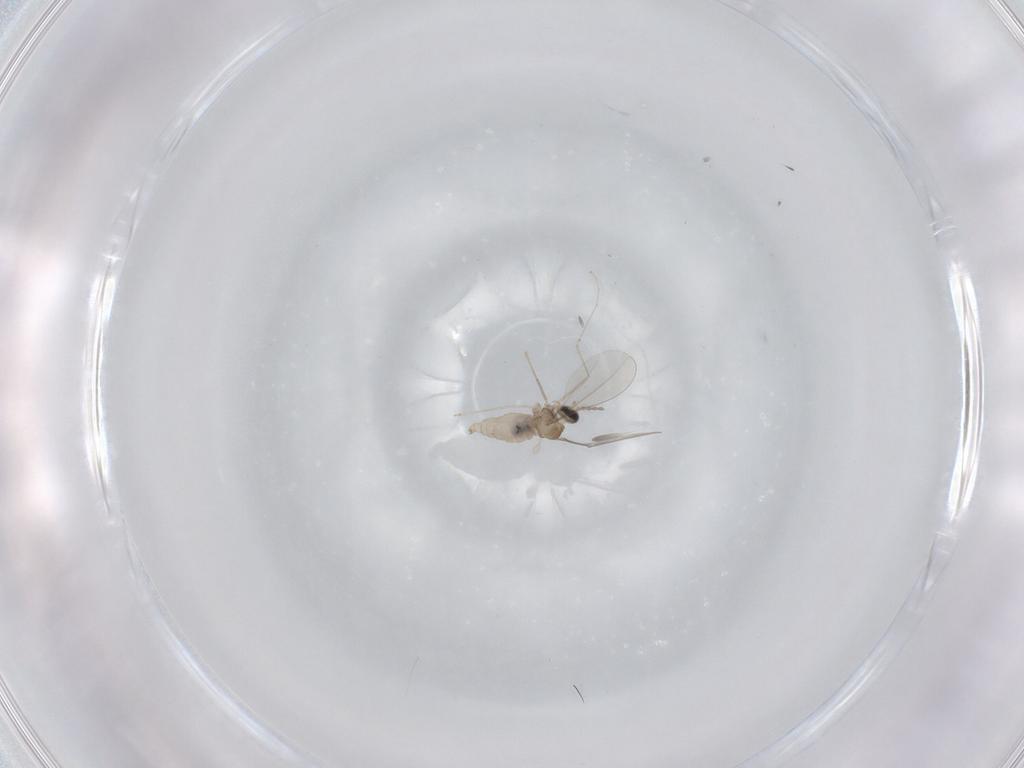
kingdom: Animalia
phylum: Arthropoda
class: Insecta
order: Diptera
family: Cecidomyiidae
